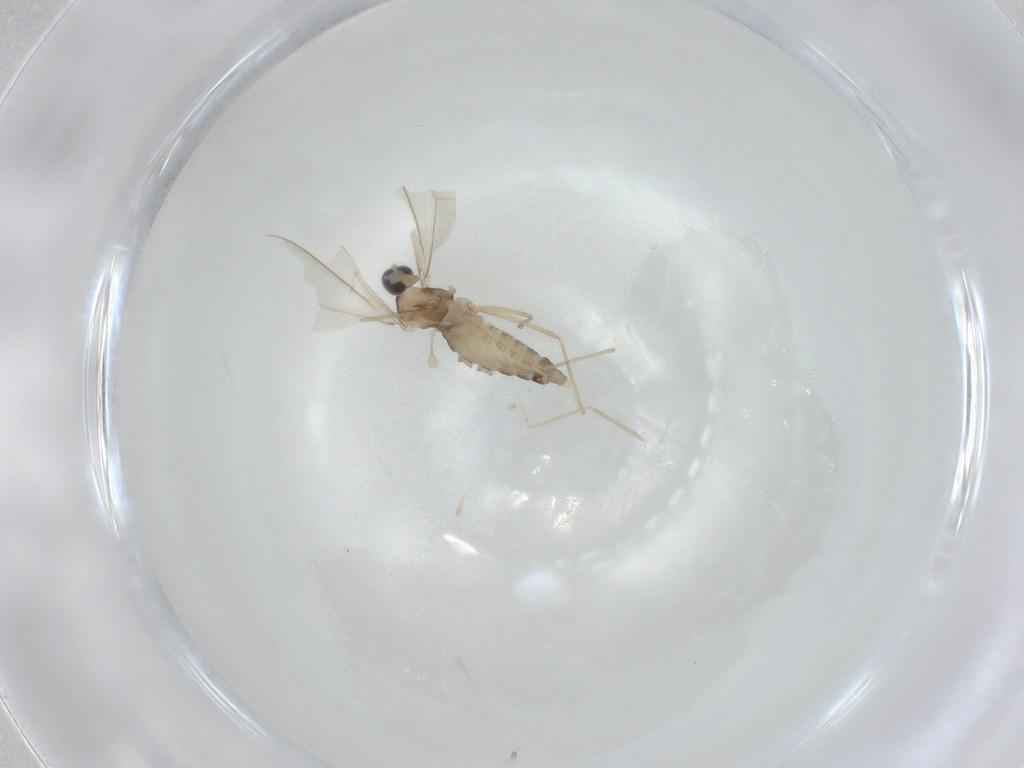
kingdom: Animalia
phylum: Arthropoda
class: Insecta
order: Diptera
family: Cecidomyiidae
